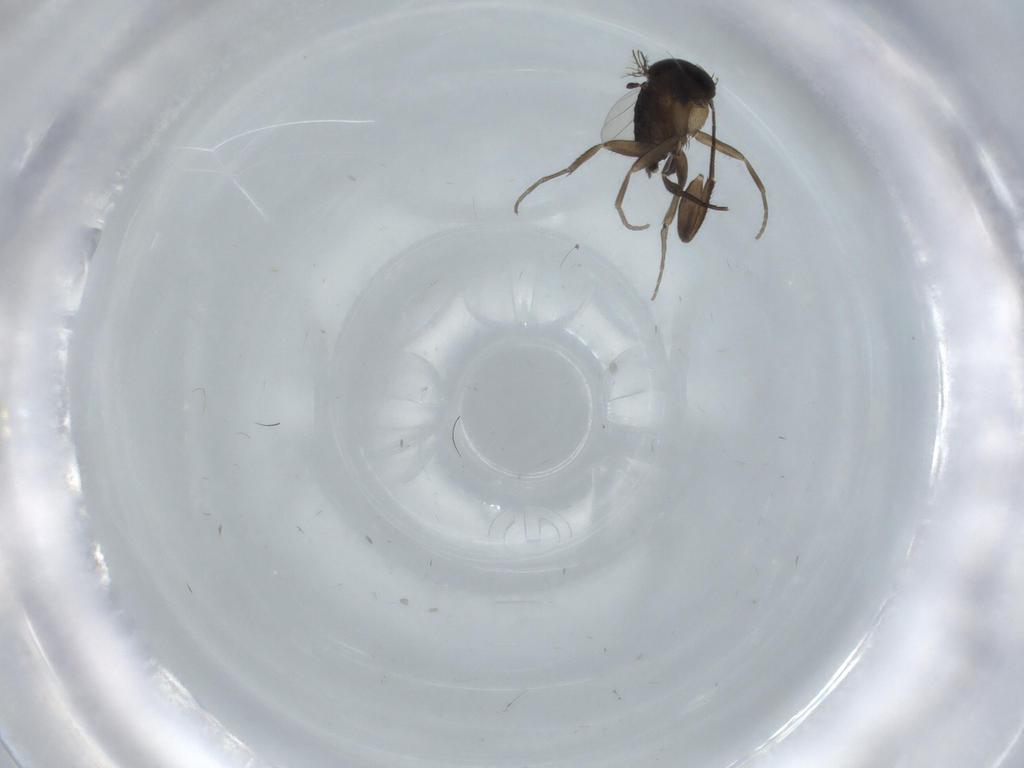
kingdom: Animalia
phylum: Arthropoda
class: Insecta
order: Diptera
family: Phoridae
